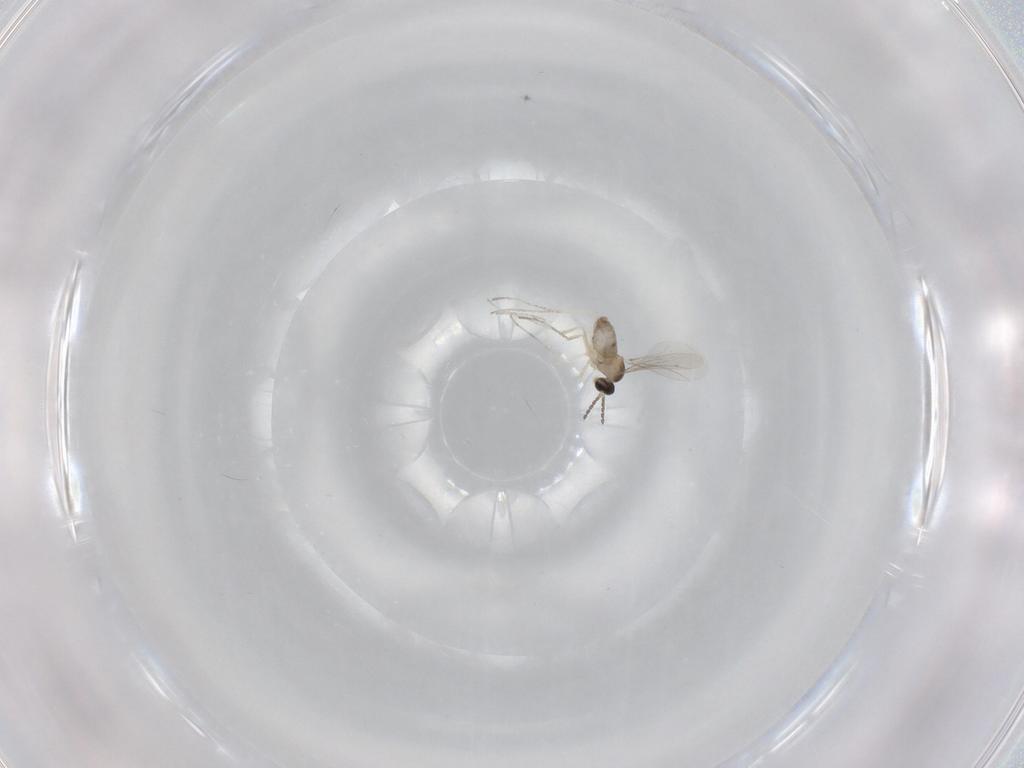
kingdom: Animalia
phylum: Arthropoda
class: Insecta
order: Diptera
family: Cecidomyiidae
